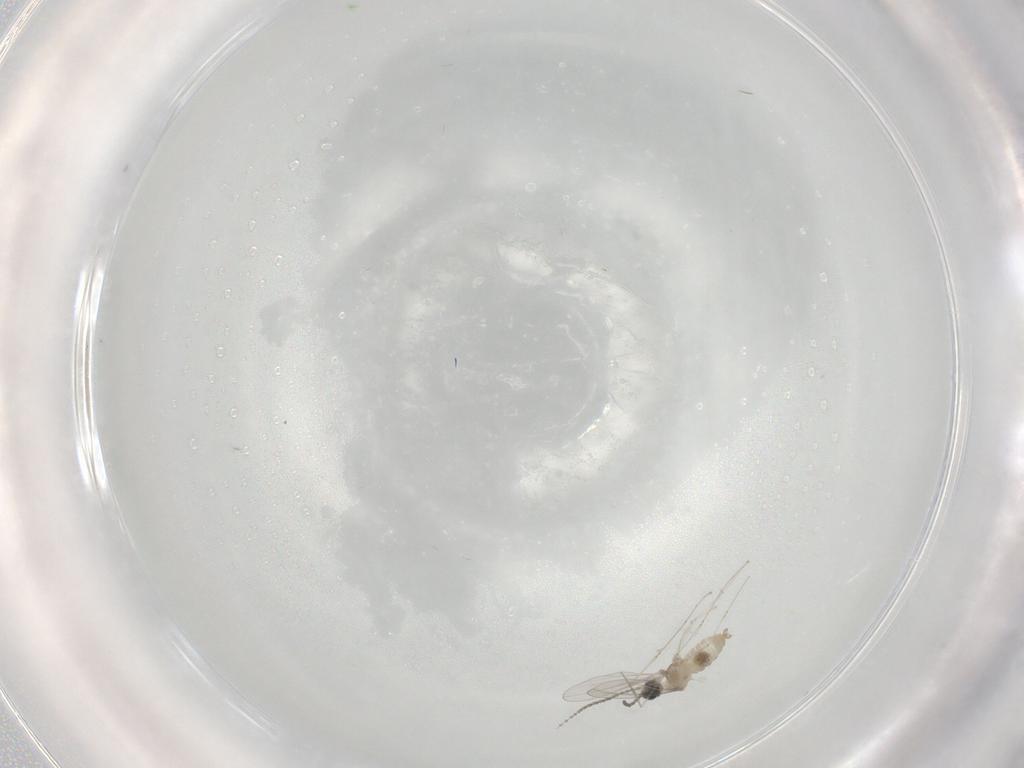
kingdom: Animalia
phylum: Arthropoda
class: Insecta
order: Diptera
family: Cecidomyiidae
